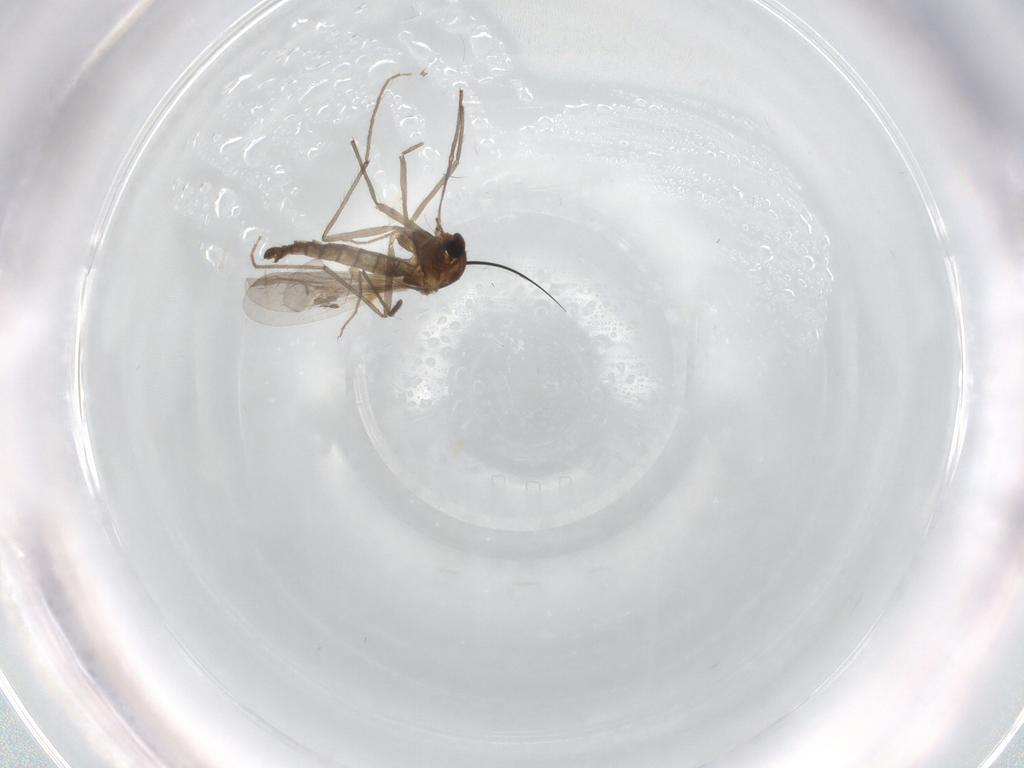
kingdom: Animalia
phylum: Arthropoda
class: Insecta
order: Diptera
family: Chironomidae
